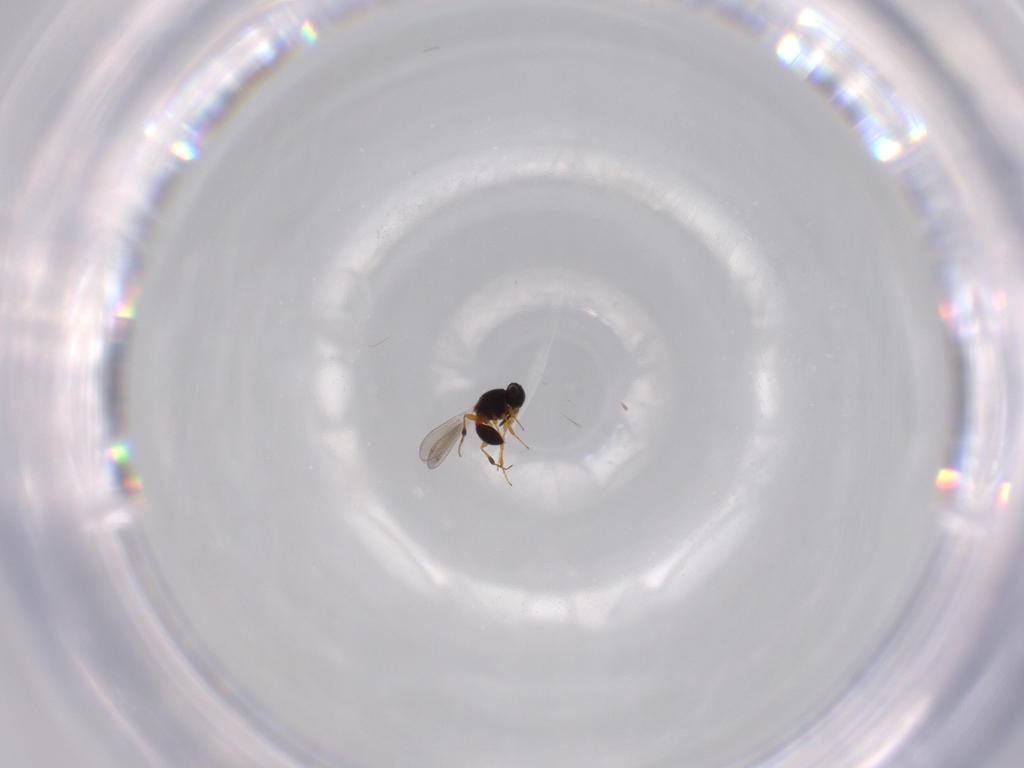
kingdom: Animalia
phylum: Arthropoda
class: Insecta
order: Hymenoptera
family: Platygastridae
